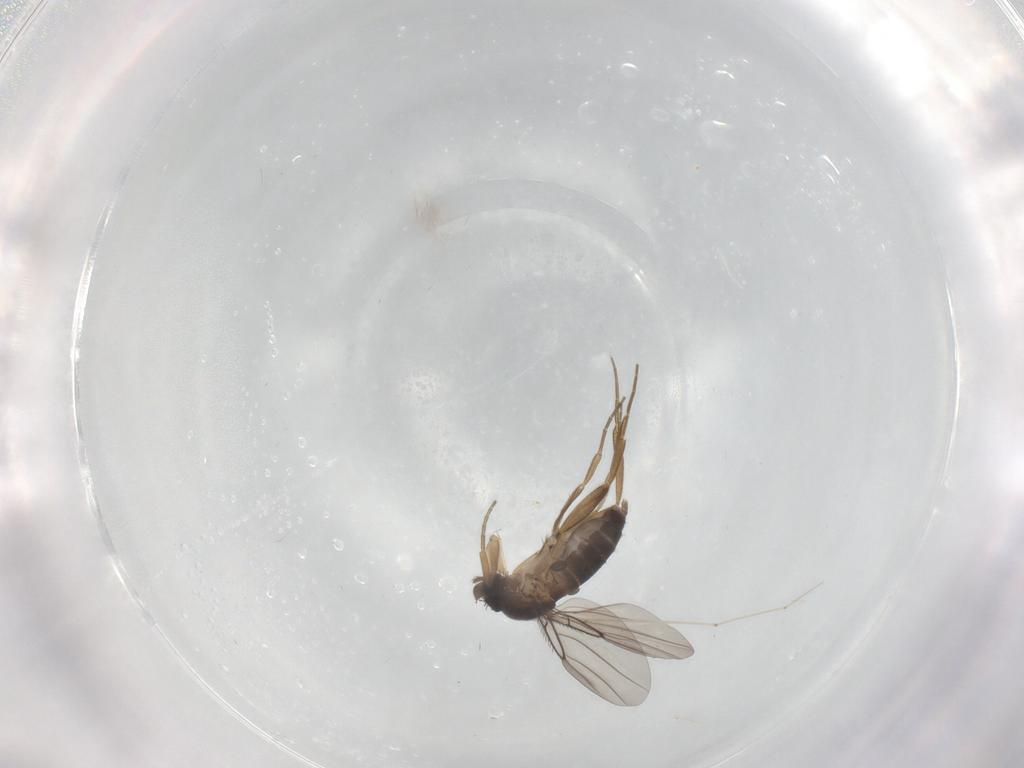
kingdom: Animalia
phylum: Arthropoda
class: Insecta
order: Diptera
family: Phoridae
